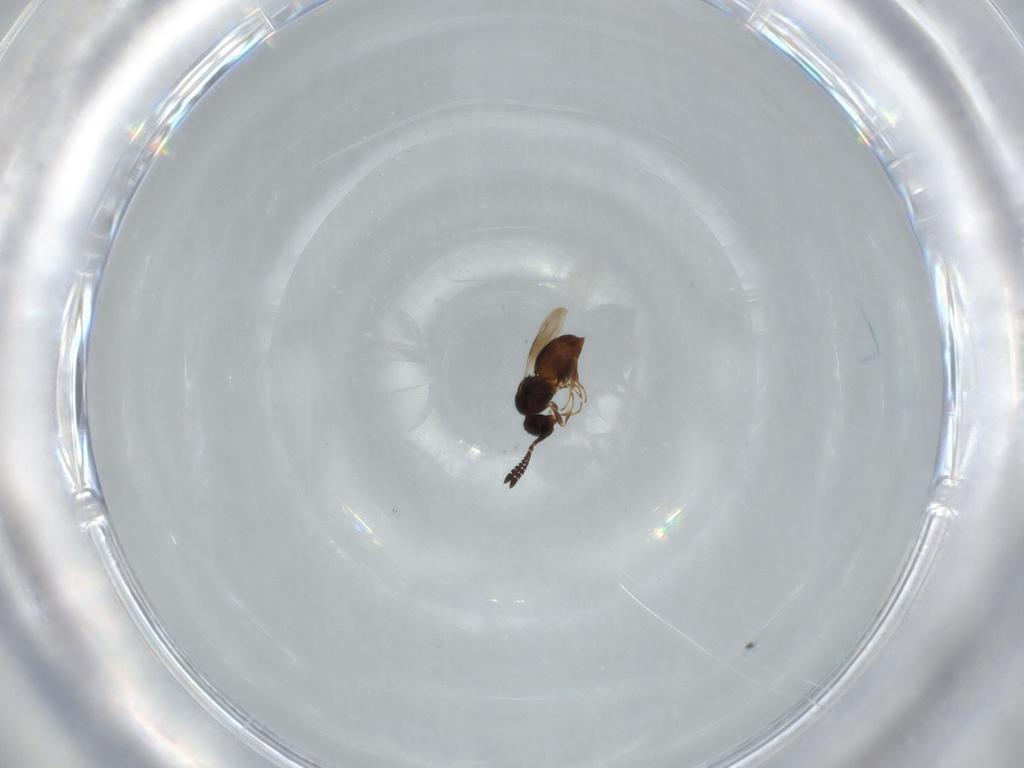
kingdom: Animalia
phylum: Arthropoda
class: Insecta
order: Hymenoptera
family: Ceraphronidae
